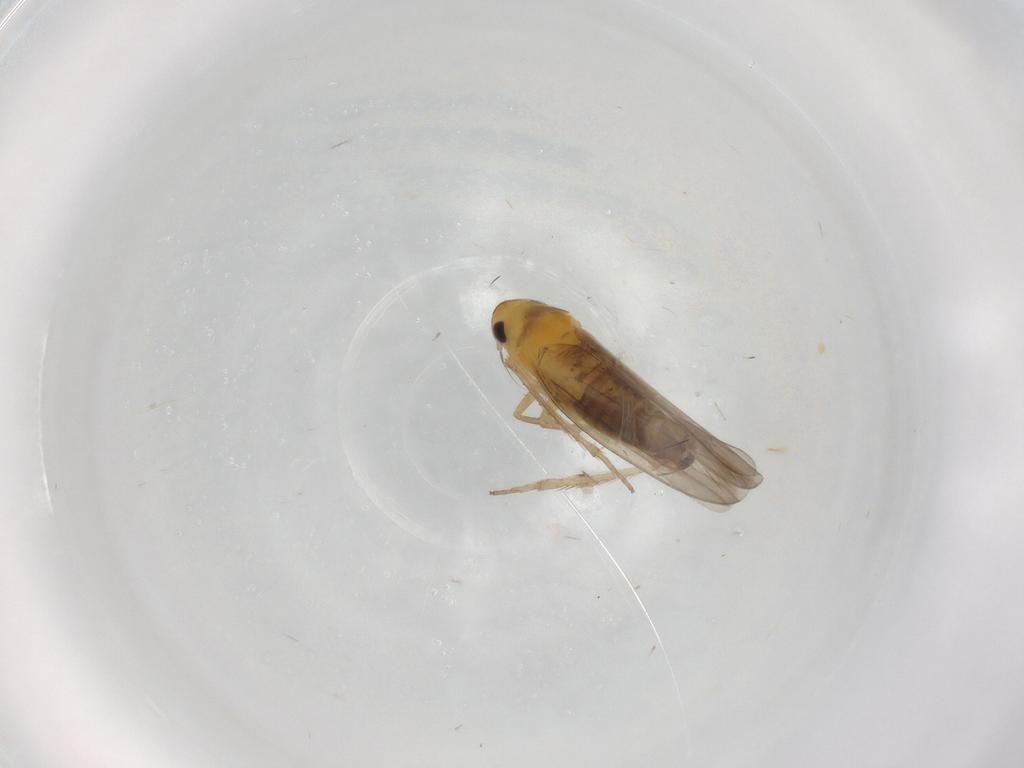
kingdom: Animalia
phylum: Arthropoda
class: Insecta
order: Hemiptera
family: Cicadellidae
